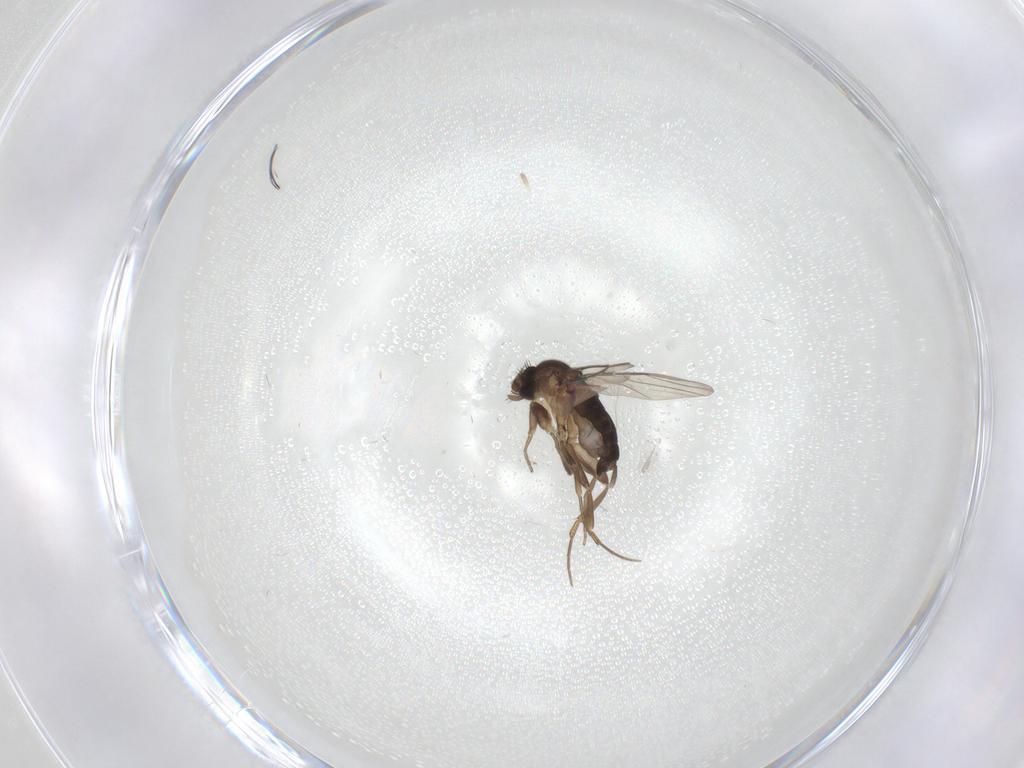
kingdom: Animalia
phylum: Arthropoda
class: Insecta
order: Diptera
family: Phoridae
